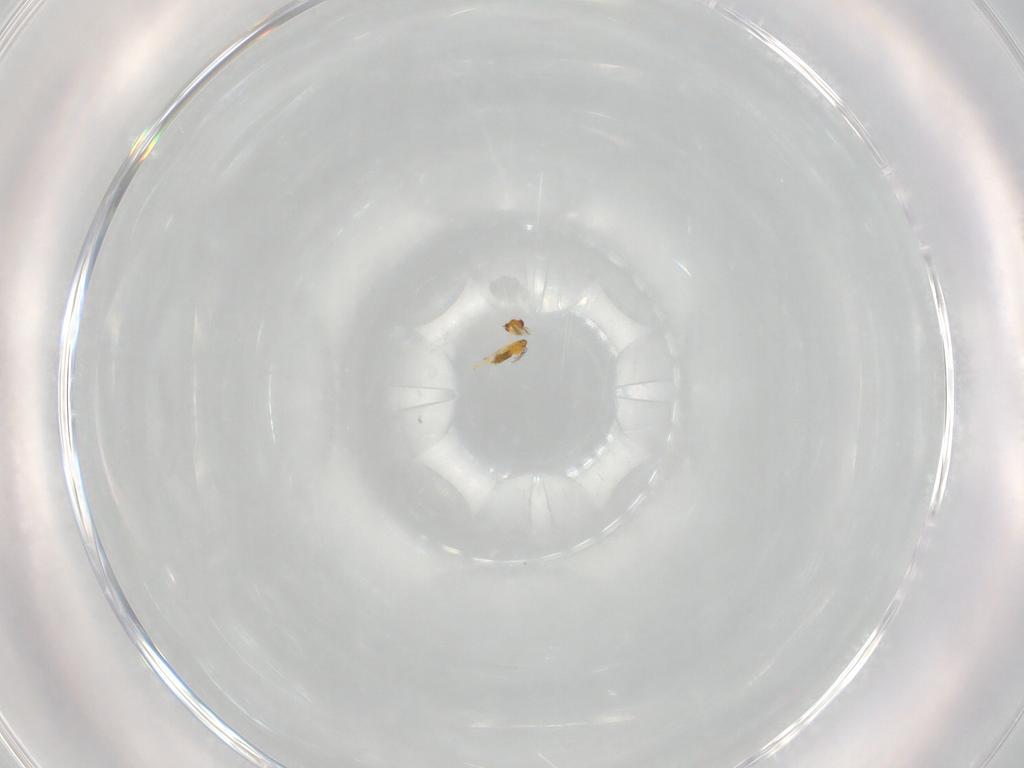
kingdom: Animalia
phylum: Arthropoda
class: Insecta
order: Hymenoptera
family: Trichogrammatidae
